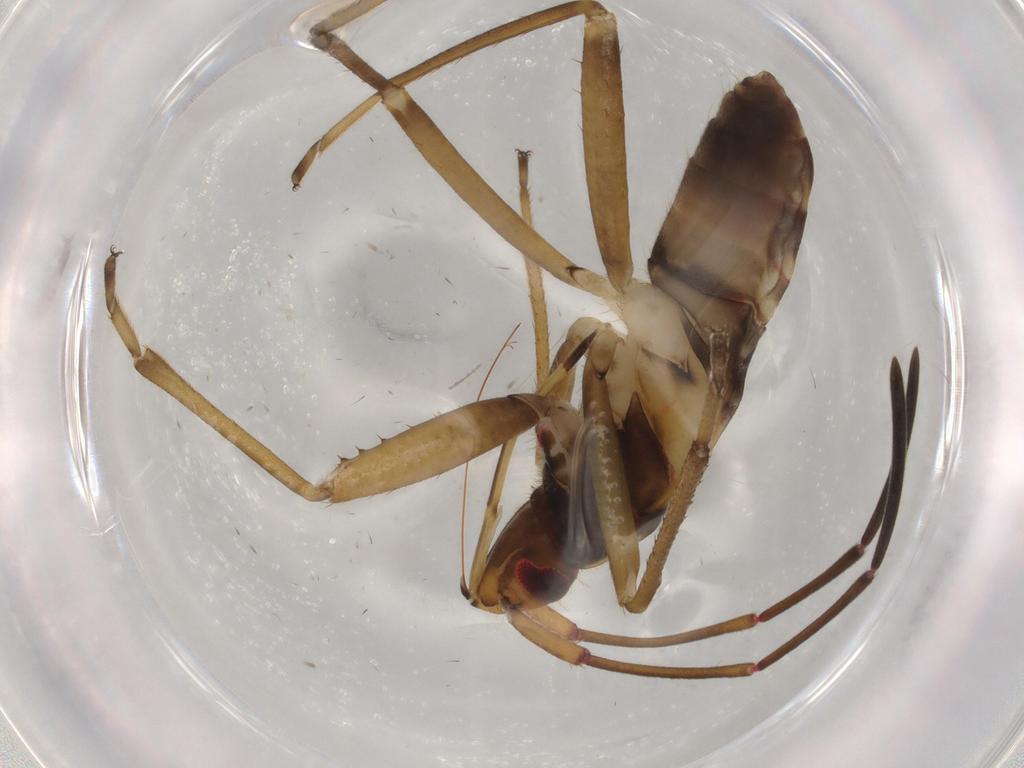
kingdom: Animalia
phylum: Arthropoda
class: Insecta
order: Hemiptera
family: Rhyparochromidae
